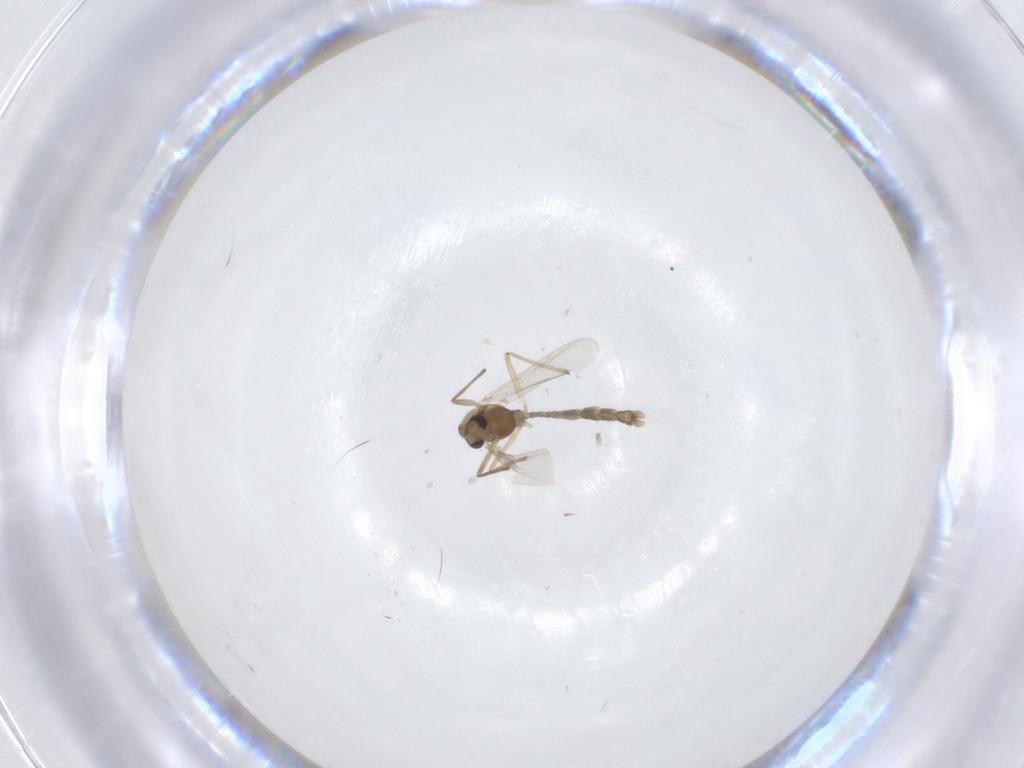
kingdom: Animalia
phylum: Arthropoda
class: Insecta
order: Diptera
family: Chironomidae
